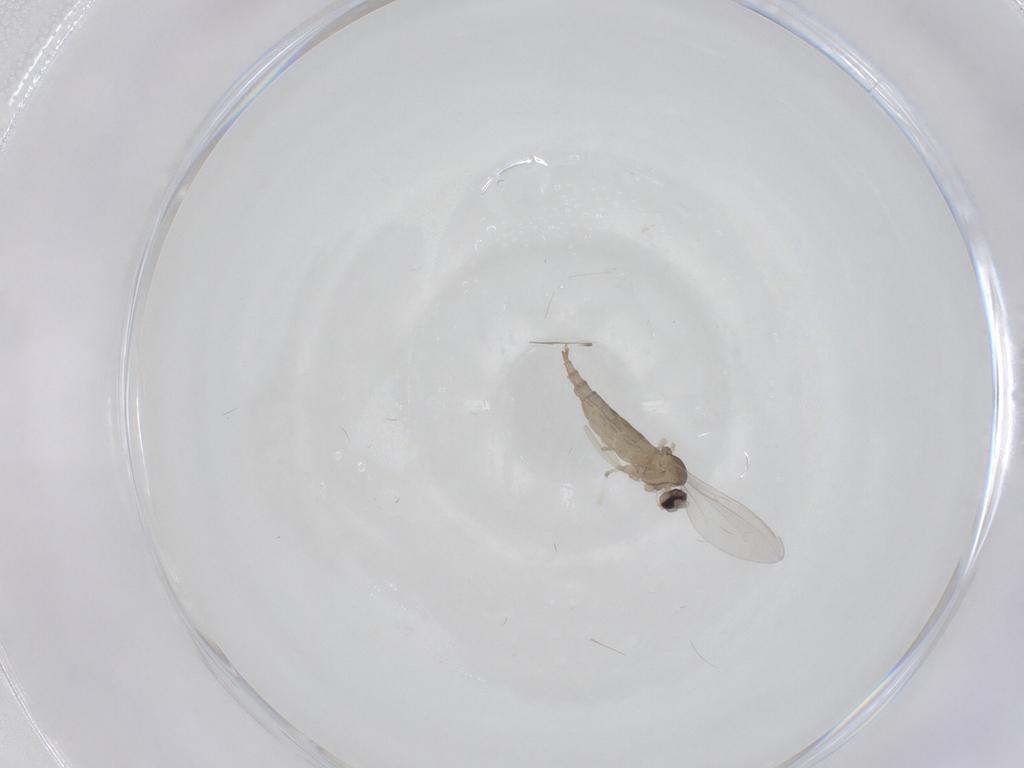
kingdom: Animalia
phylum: Arthropoda
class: Insecta
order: Diptera
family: Cecidomyiidae
